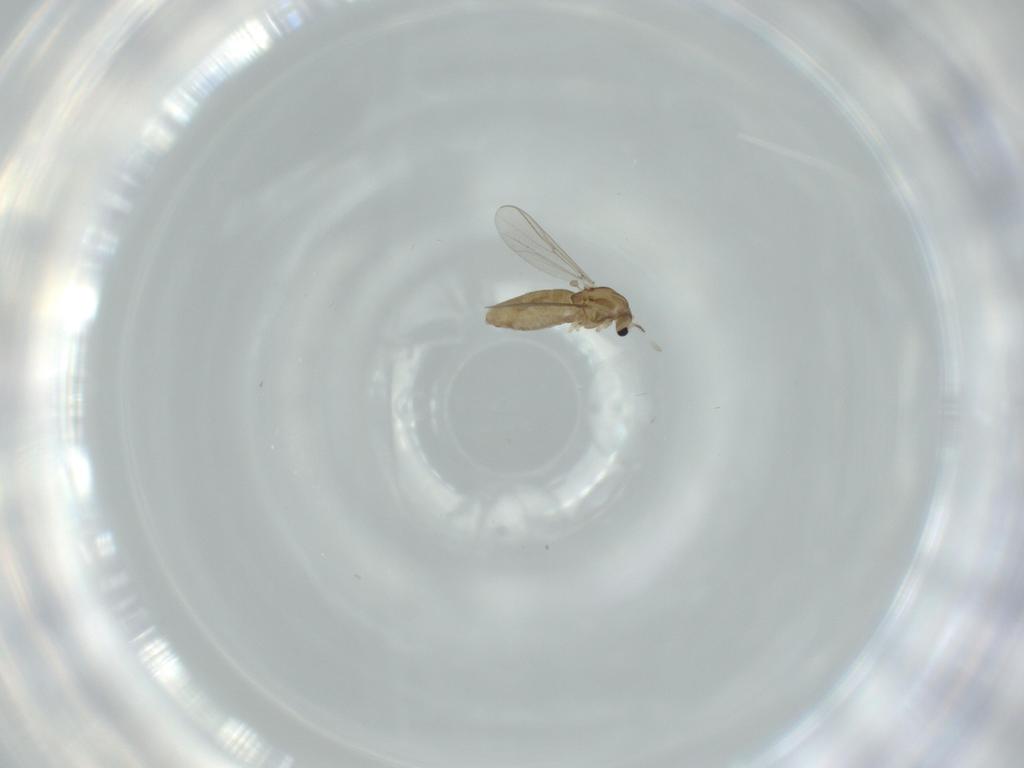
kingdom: Animalia
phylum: Arthropoda
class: Insecta
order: Diptera
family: Chironomidae
